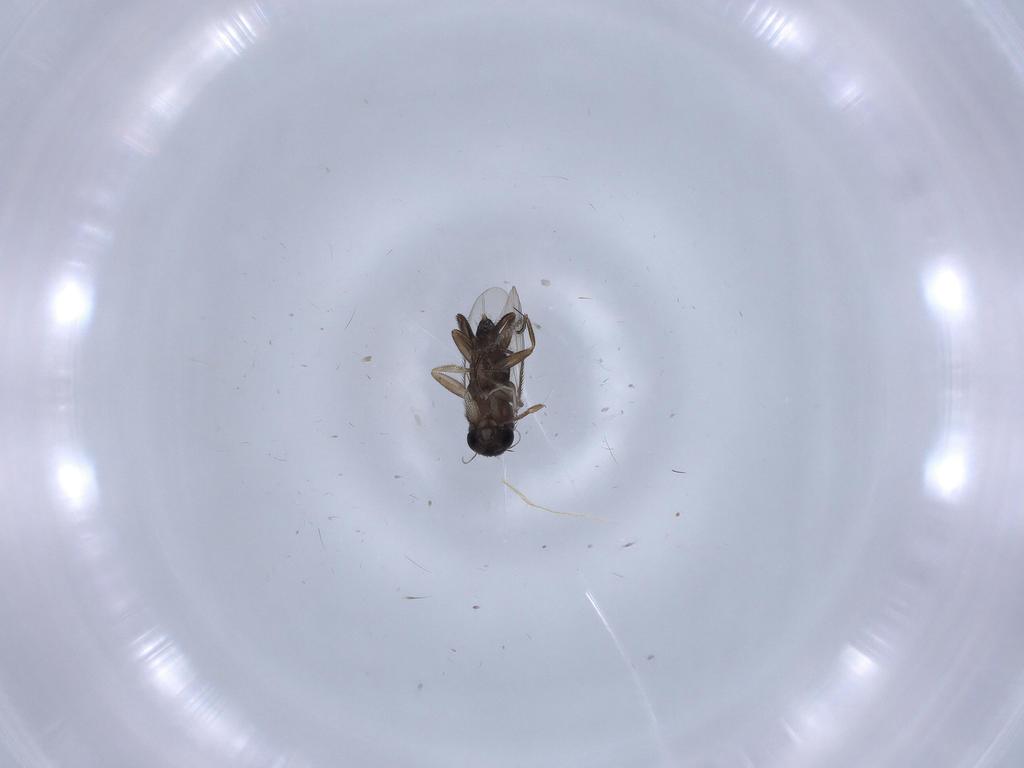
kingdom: Animalia
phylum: Arthropoda
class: Insecta
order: Diptera
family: Phoridae
